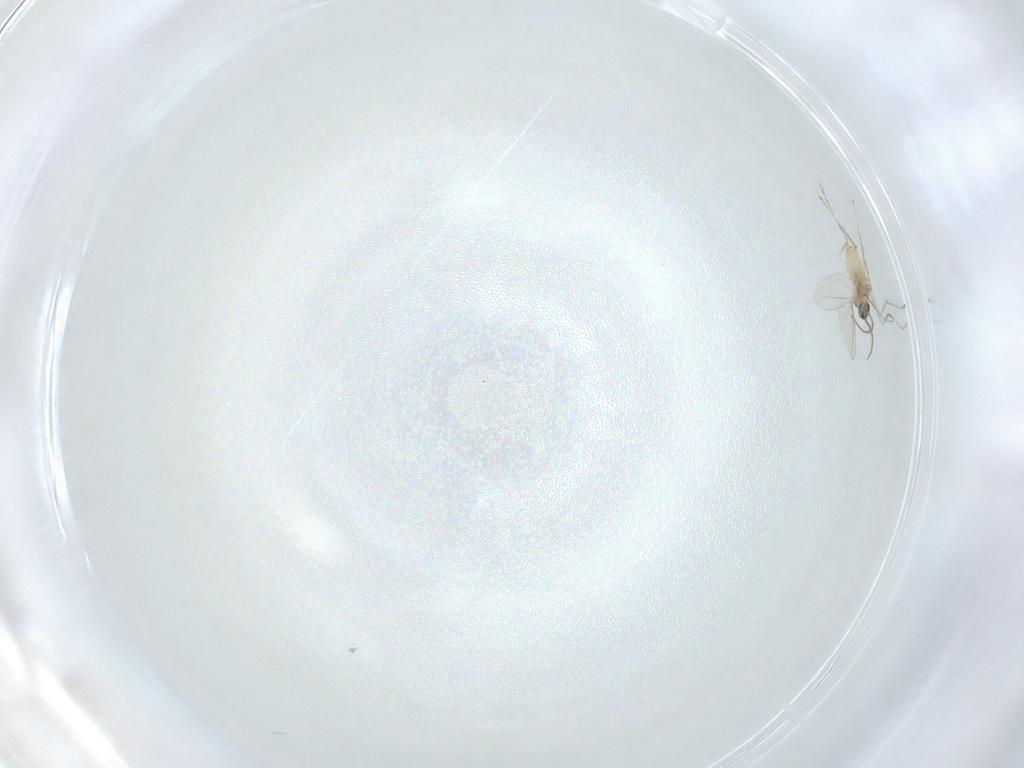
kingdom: Animalia
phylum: Arthropoda
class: Insecta
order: Diptera
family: Cecidomyiidae
